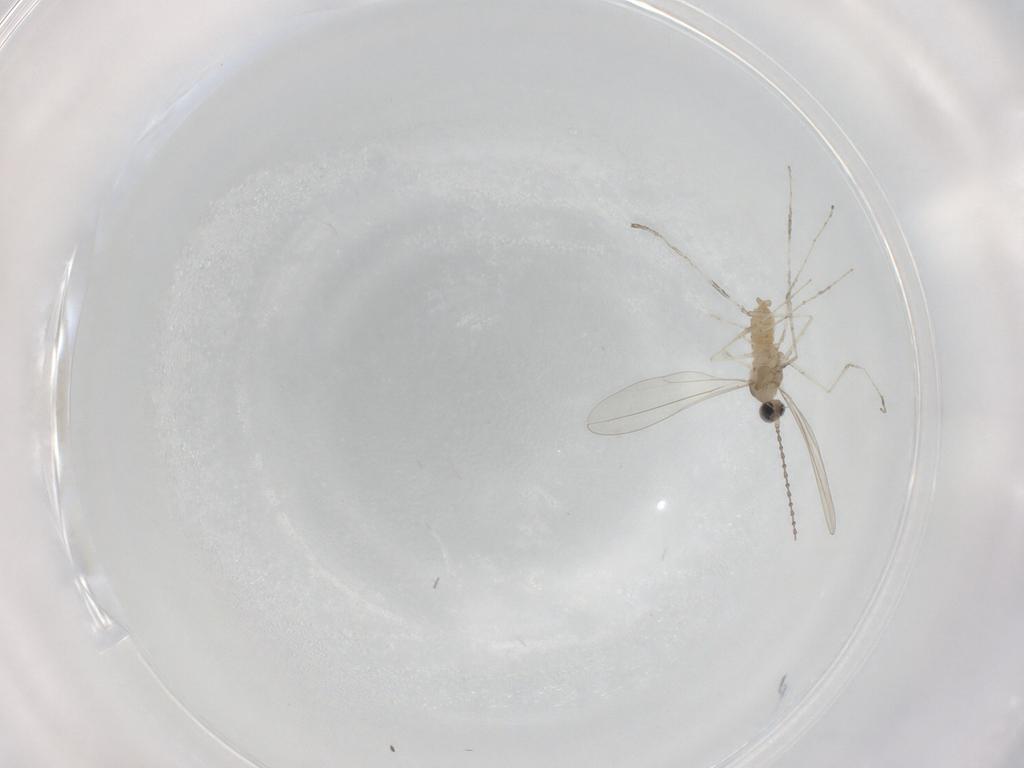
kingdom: Animalia
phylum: Arthropoda
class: Insecta
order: Diptera
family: Cecidomyiidae
